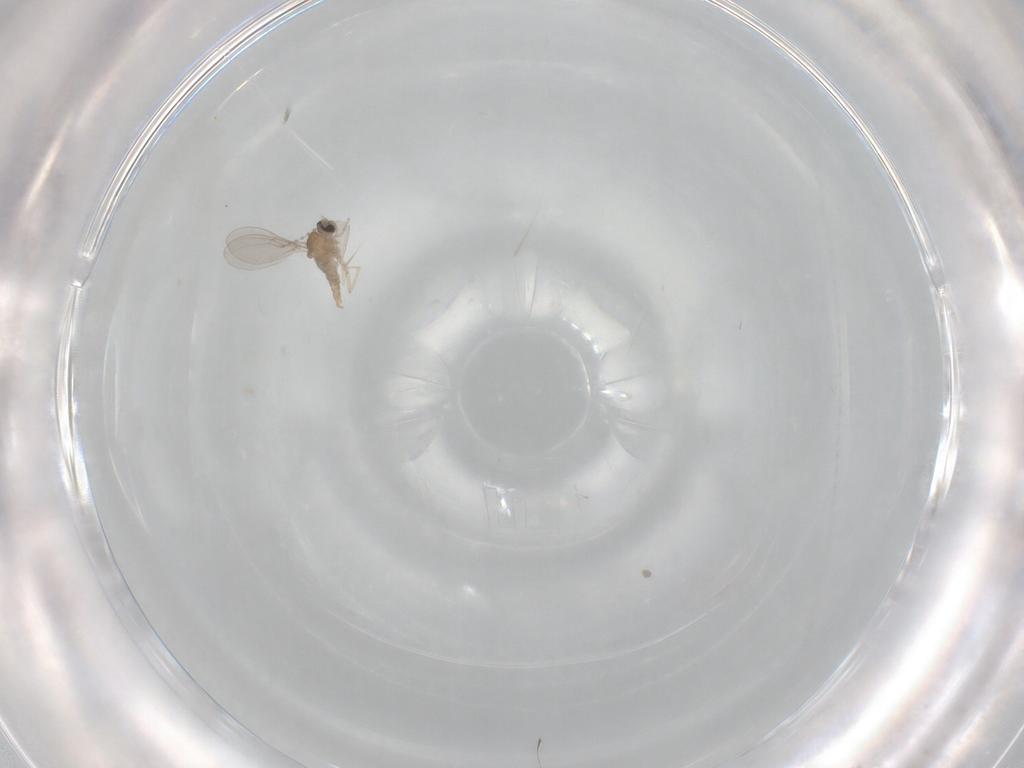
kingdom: Animalia
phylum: Arthropoda
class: Insecta
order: Diptera
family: Cecidomyiidae
